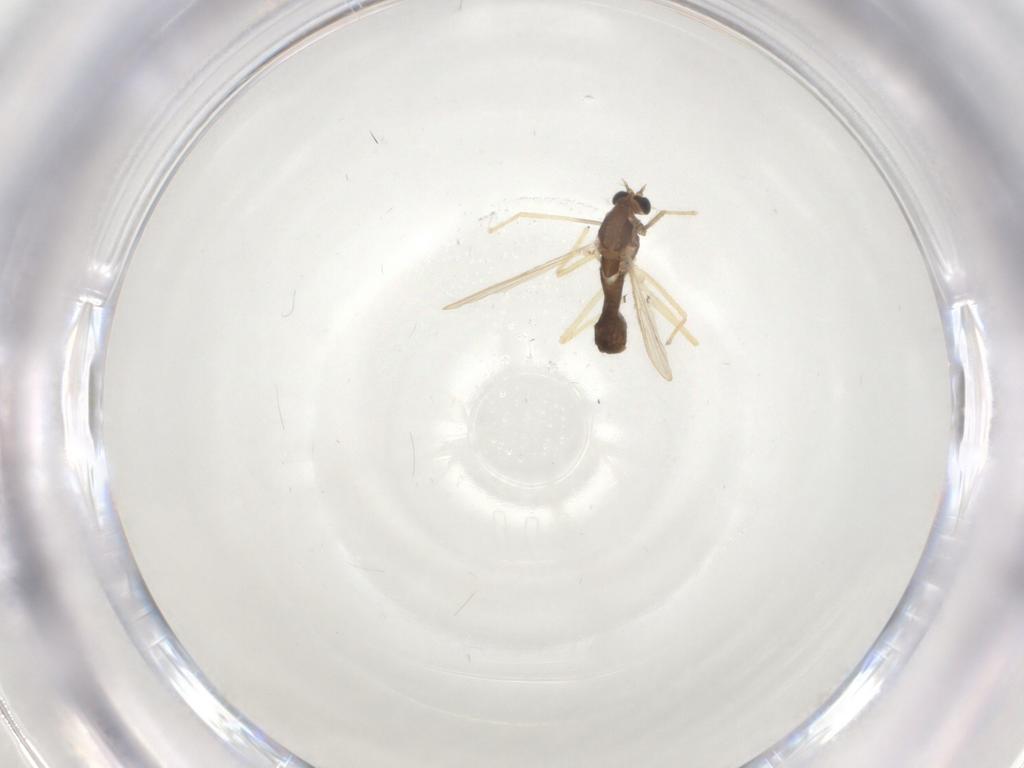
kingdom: Animalia
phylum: Arthropoda
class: Insecta
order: Diptera
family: Chironomidae
